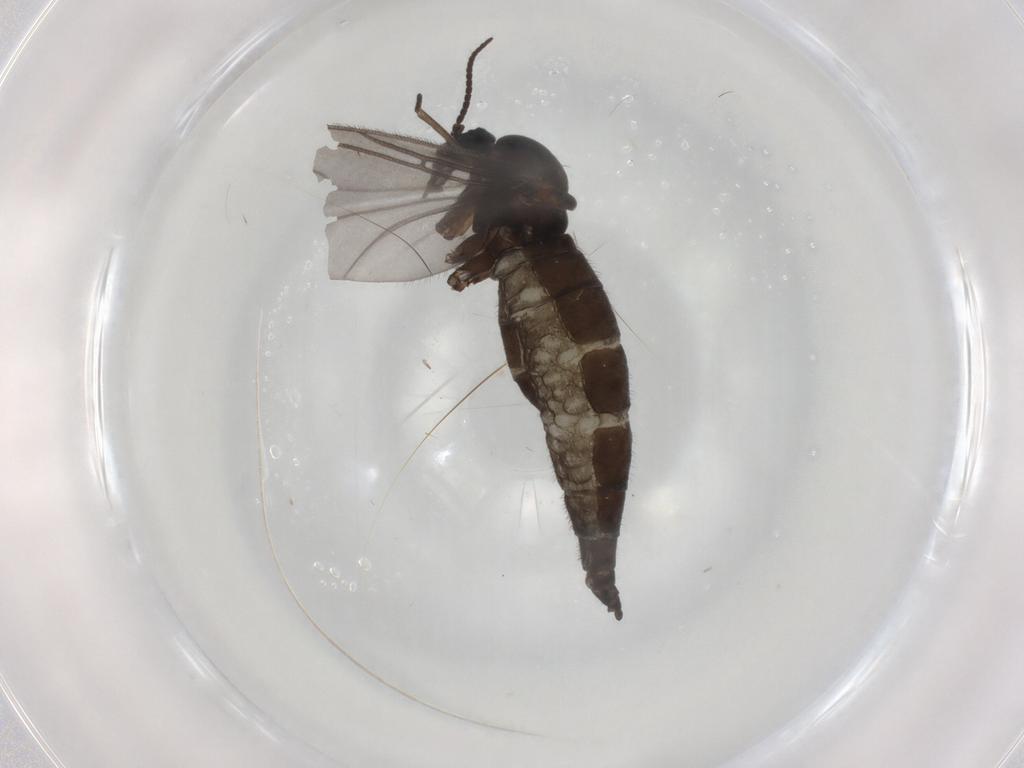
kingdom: Animalia
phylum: Arthropoda
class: Insecta
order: Diptera
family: Sciaridae
